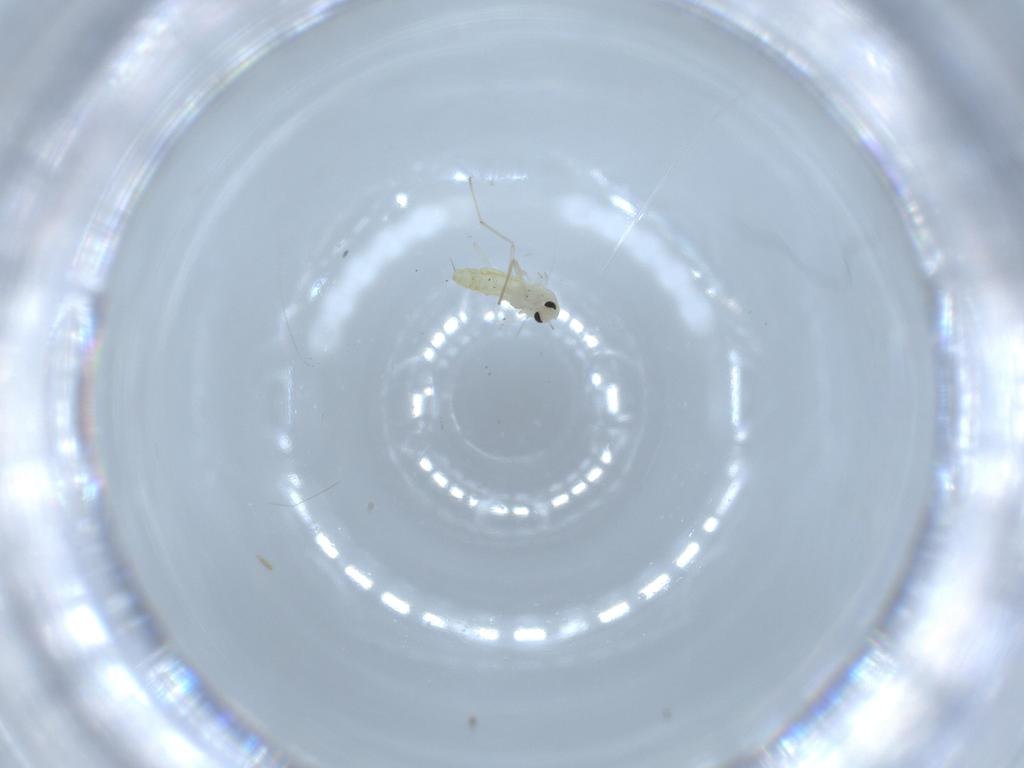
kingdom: Animalia
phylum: Arthropoda
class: Insecta
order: Diptera
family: Chironomidae
